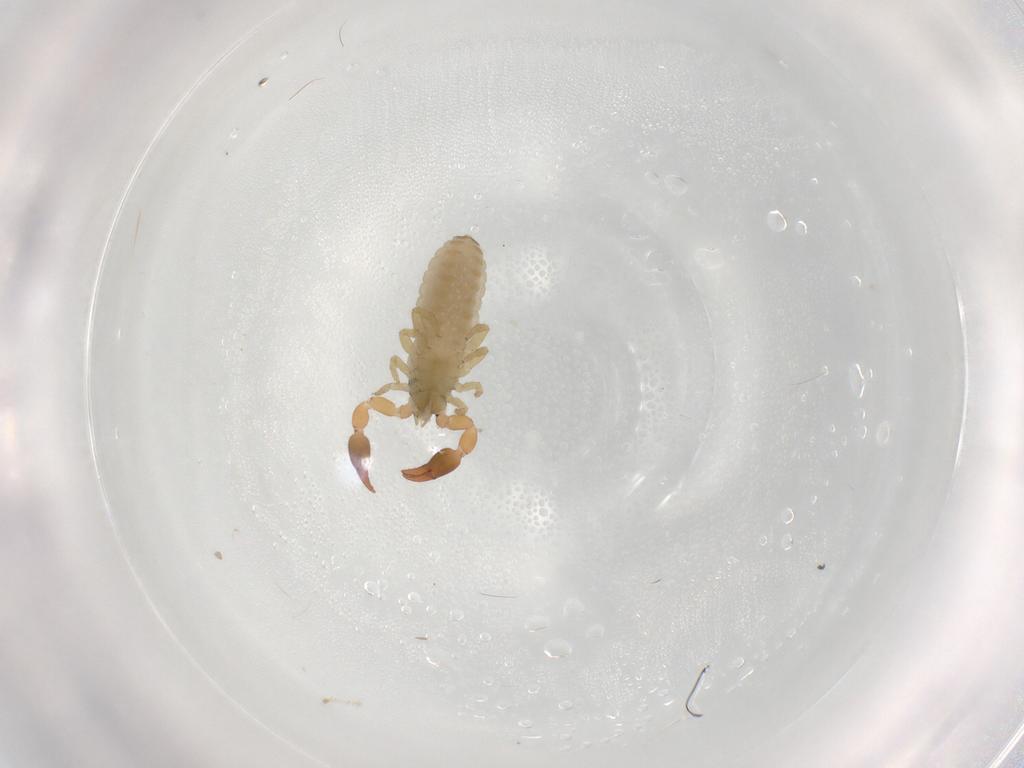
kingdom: Animalia
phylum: Arthropoda
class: Arachnida
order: Pseudoscorpiones
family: Chernetidae
